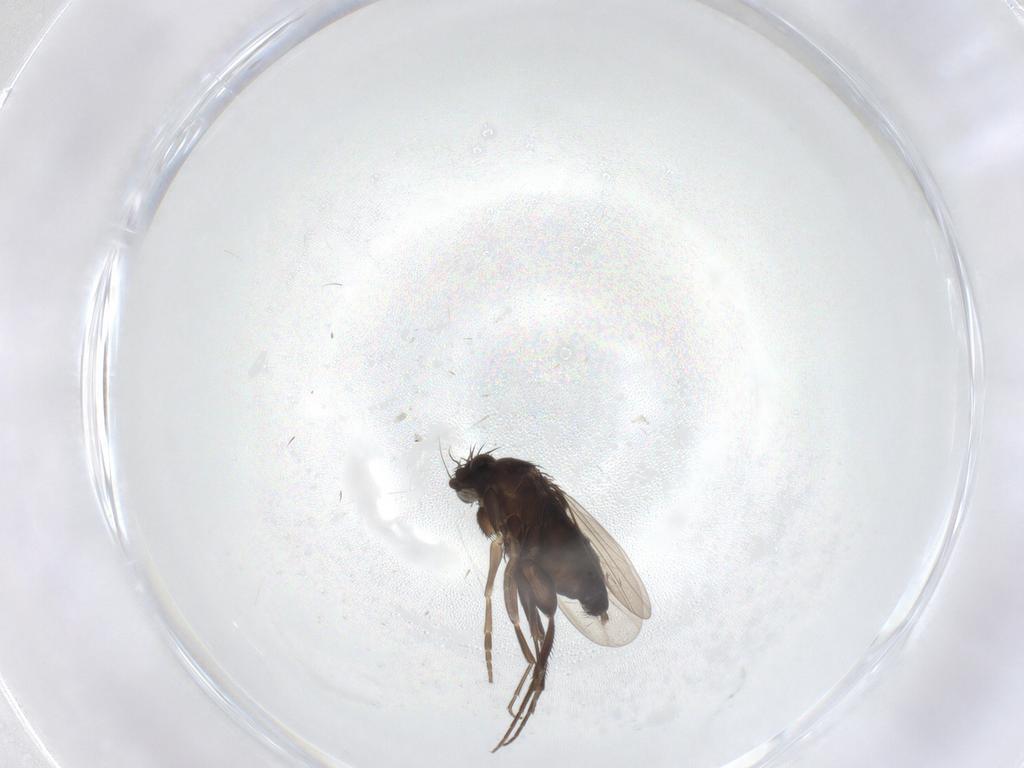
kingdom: Animalia
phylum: Arthropoda
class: Insecta
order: Diptera
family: Phoridae
